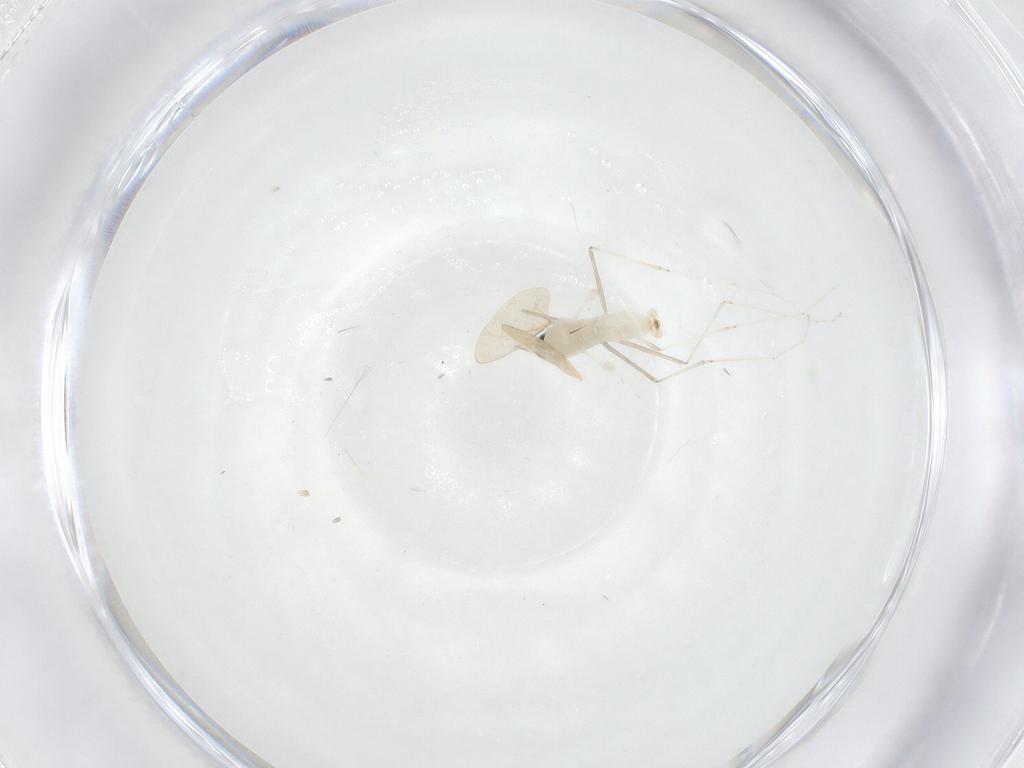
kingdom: Animalia
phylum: Arthropoda
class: Insecta
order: Diptera
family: Cecidomyiidae
